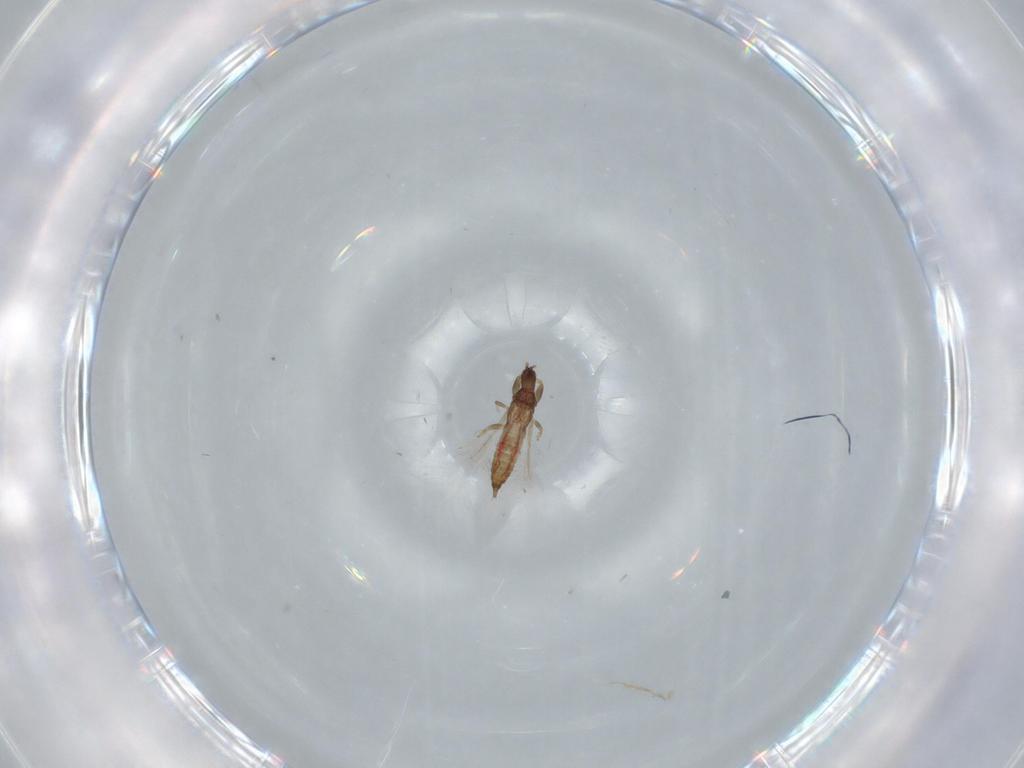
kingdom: Animalia
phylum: Arthropoda
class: Insecta
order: Thysanoptera
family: Phlaeothripidae
